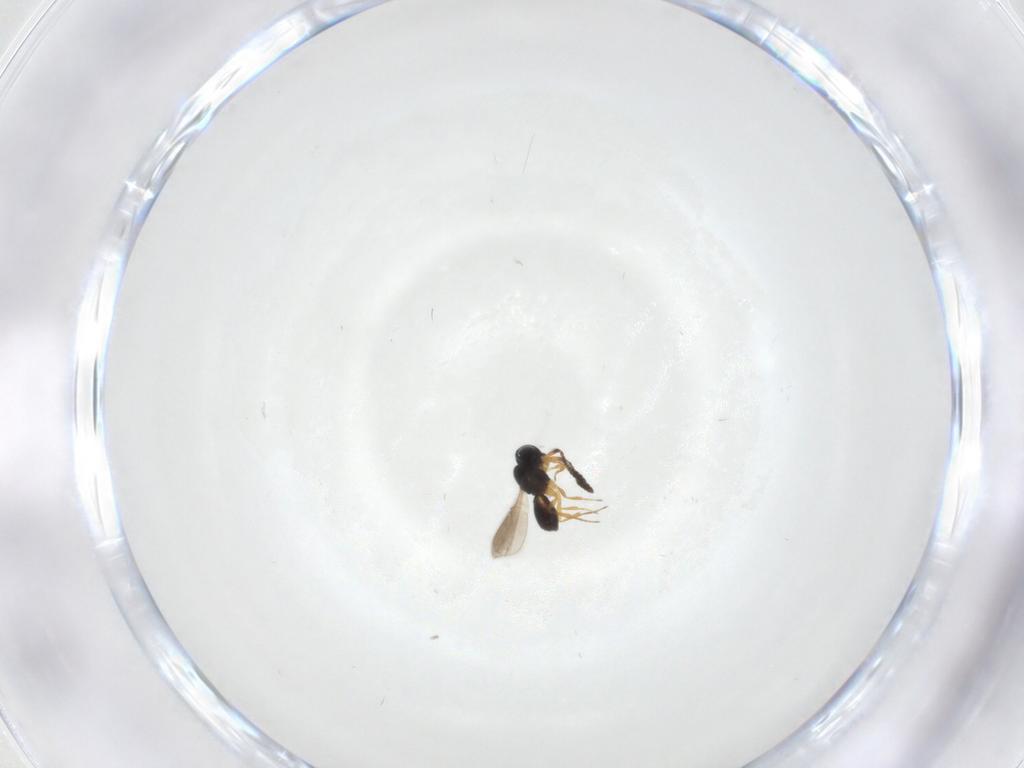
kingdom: Animalia
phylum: Arthropoda
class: Insecta
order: Hymenoptera
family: Scelionidae
